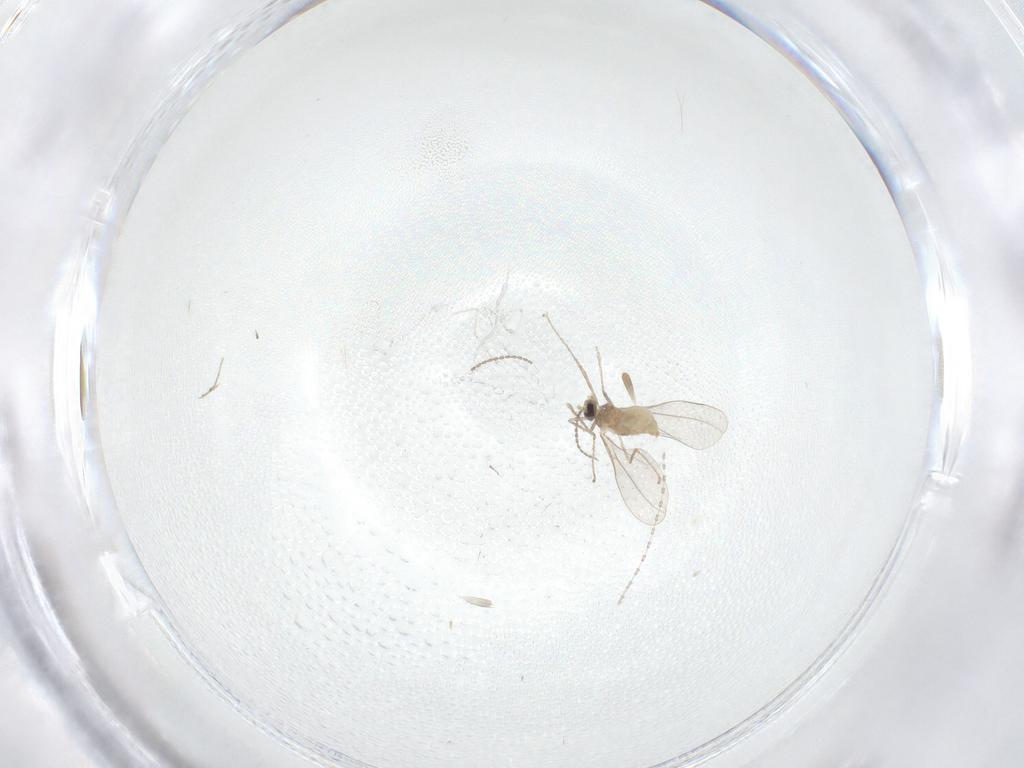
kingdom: Animalia
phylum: Arthropoda
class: Insecta
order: Diptera
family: Cecidomyiidae
